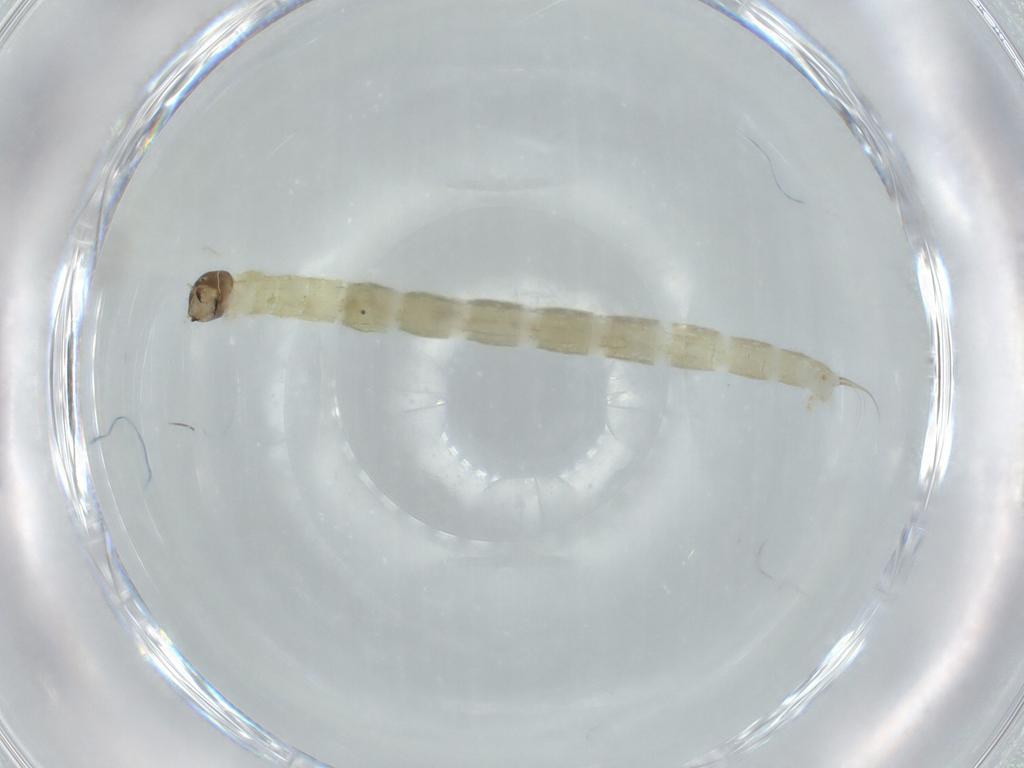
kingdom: Animalia
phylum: Arthropoda
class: Insecta
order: Diptera
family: Chironomidae
